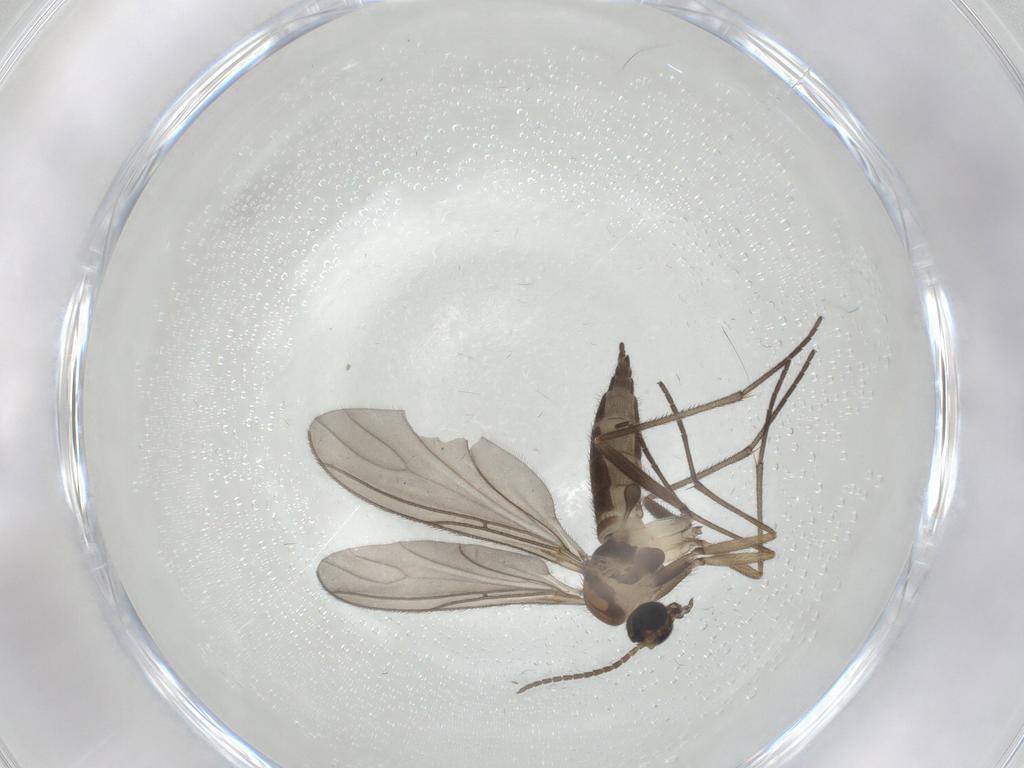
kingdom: Animalia
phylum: Arthropoda
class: Insecta
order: Diptera
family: Sciaridae
